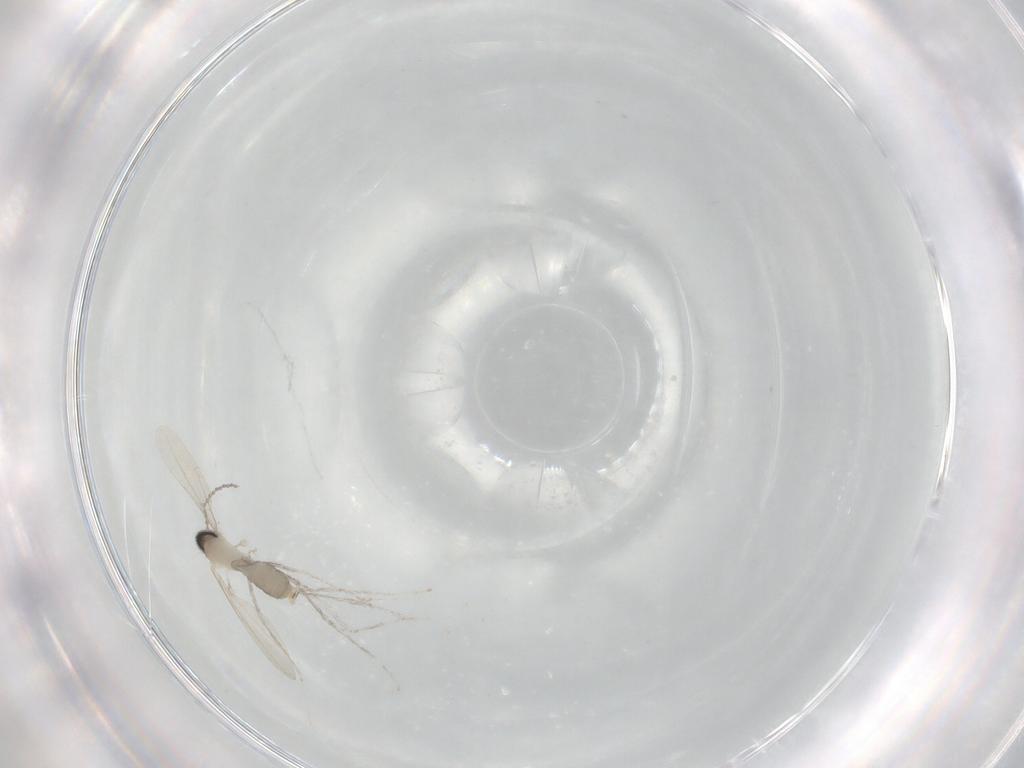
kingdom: Animalia
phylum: Arthropoda
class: Insecta
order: Diptera
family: Cecidomyiidae
